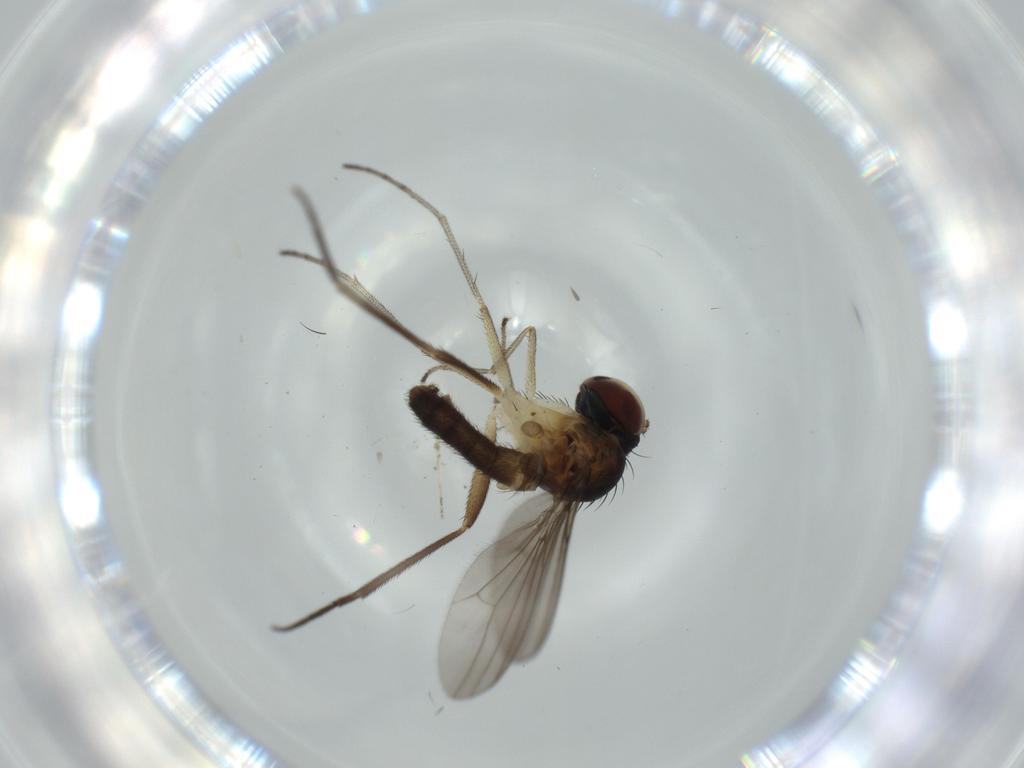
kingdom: Animalia
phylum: Arthropoda
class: Insecta
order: Diptera
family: Dolichopodidae
